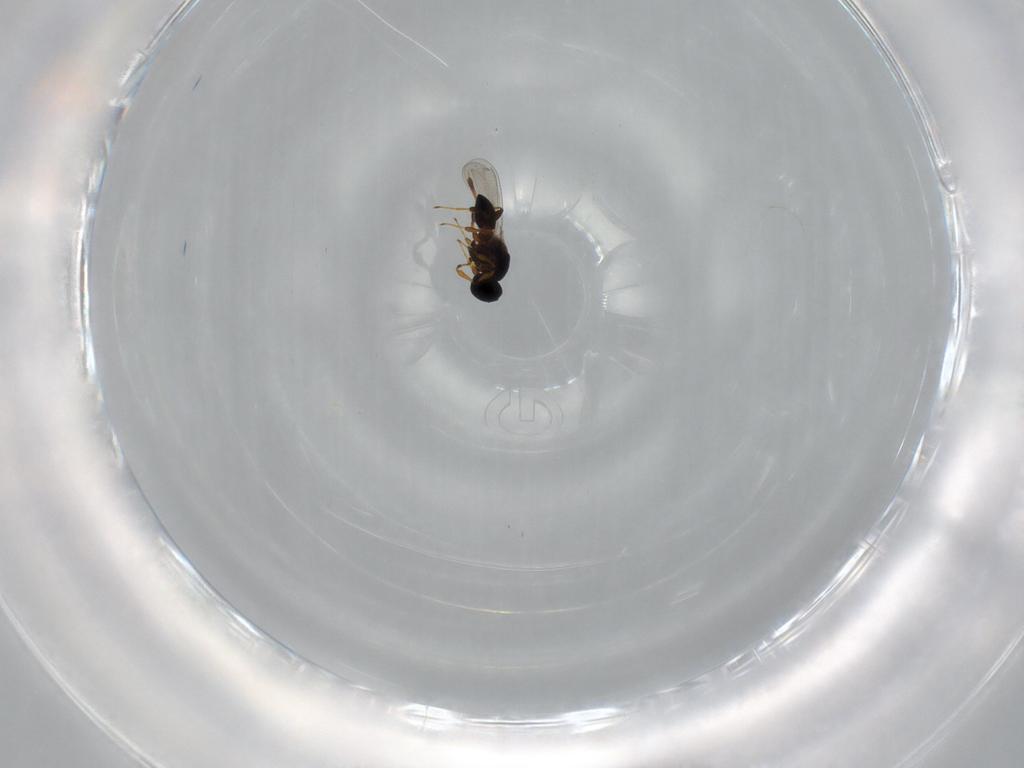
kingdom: Animalia
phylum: Arthropoda
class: Insecta
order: Hymenoptera
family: Platygastridae
